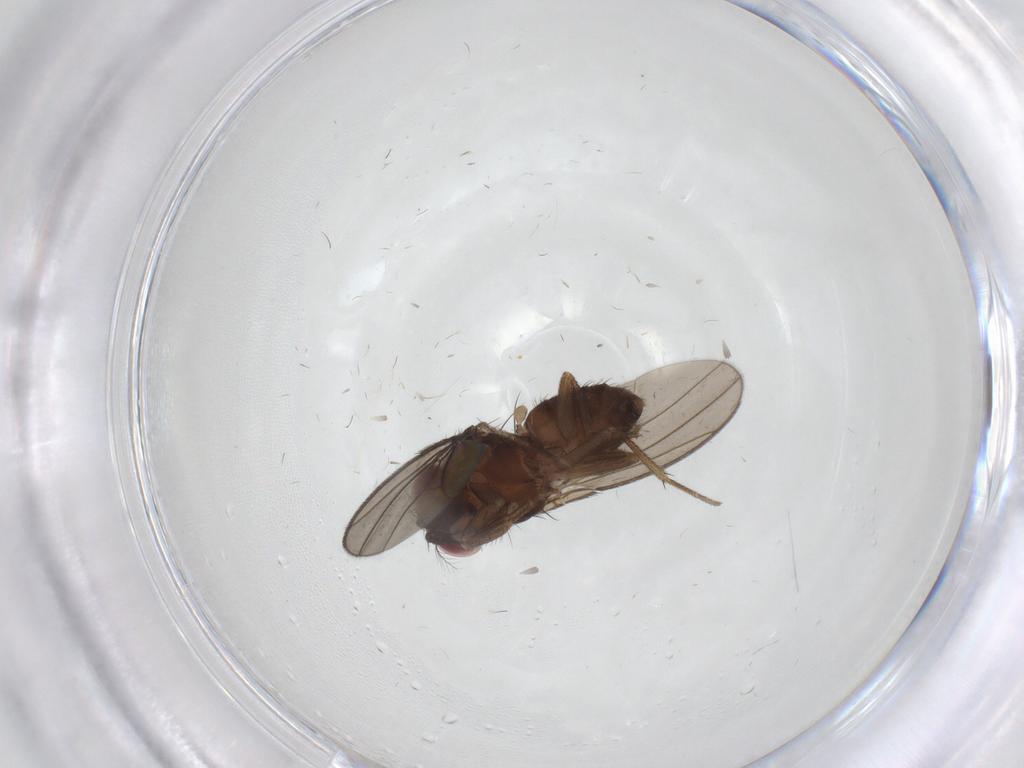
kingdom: Animalia
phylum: Arthropoda
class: Insecta
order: Diptera
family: Drosophilidae
